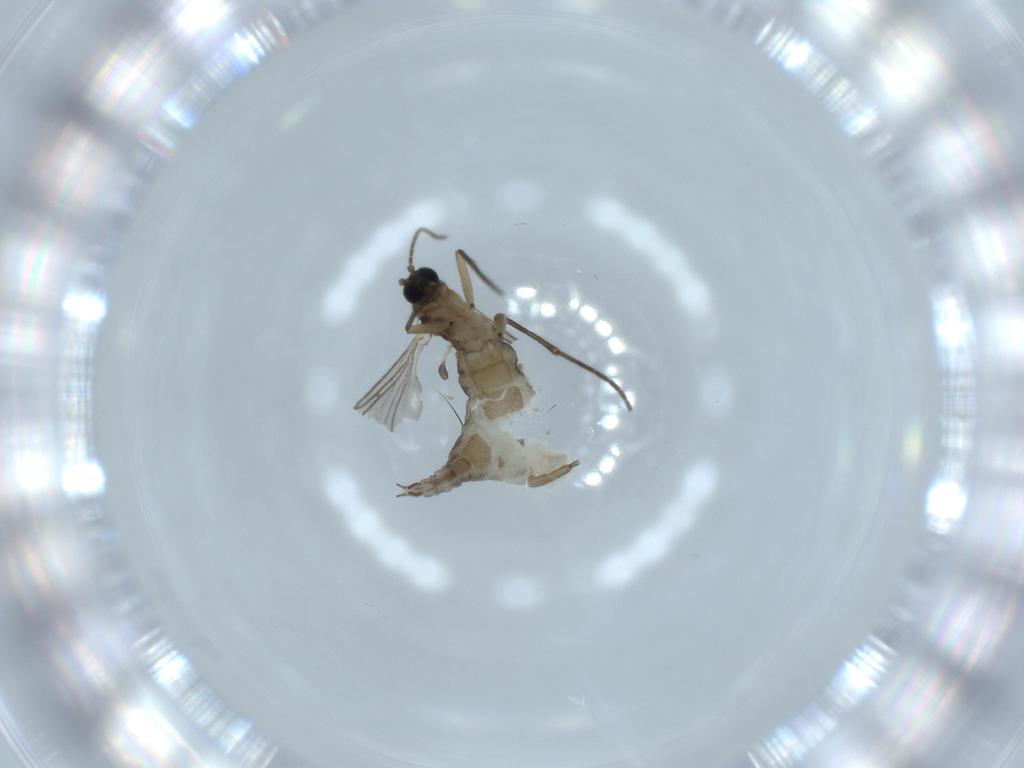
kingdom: Animalia
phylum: Arthropoda
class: Insecta
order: Diptera
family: Sciaridae
